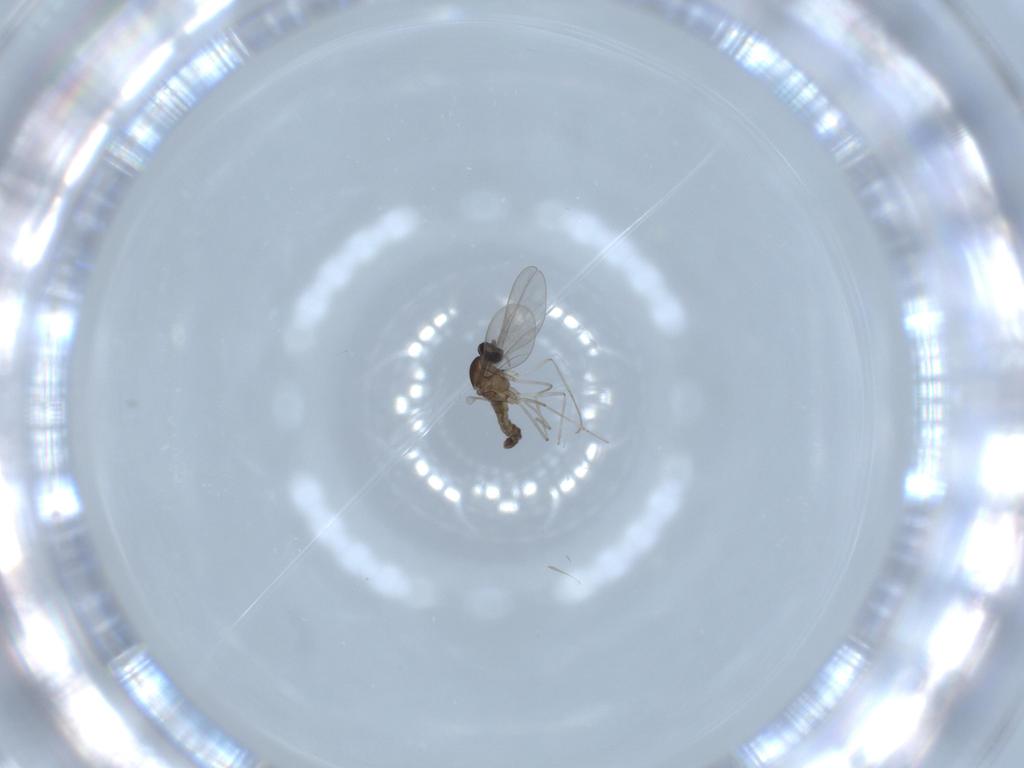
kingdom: Animalia
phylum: Arthropoda
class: Insecta
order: Diptera
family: Cecidomyiidae
